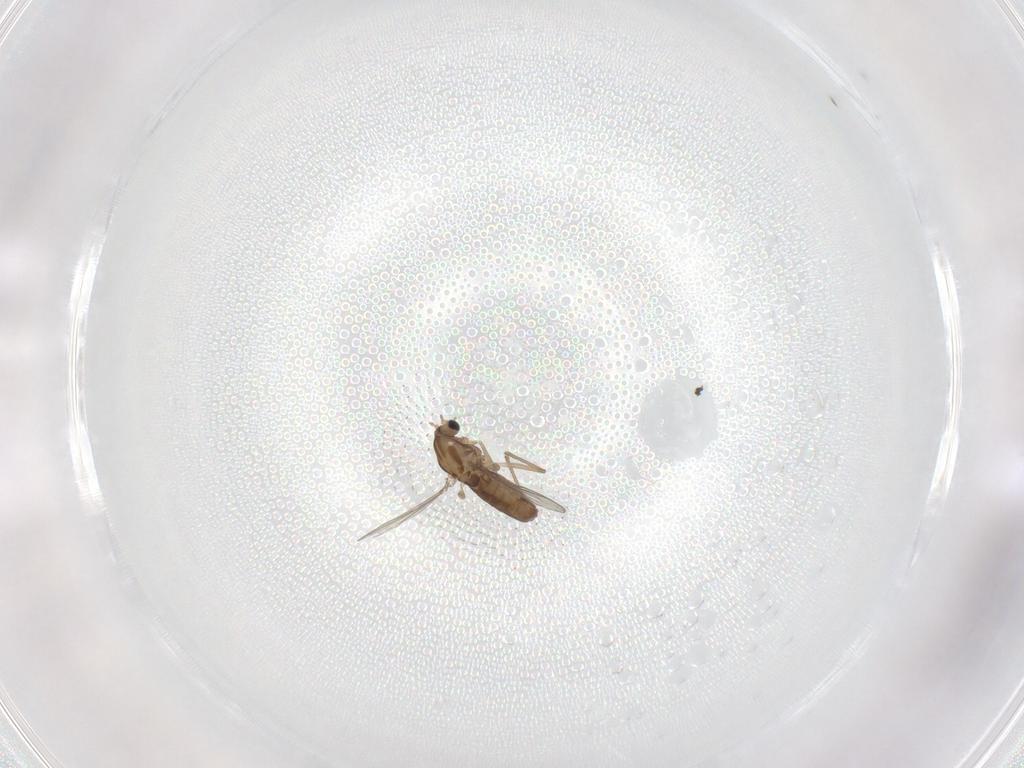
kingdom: Animalia
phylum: Arthropoda
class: Insecta
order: Diptera
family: Chironomidae
